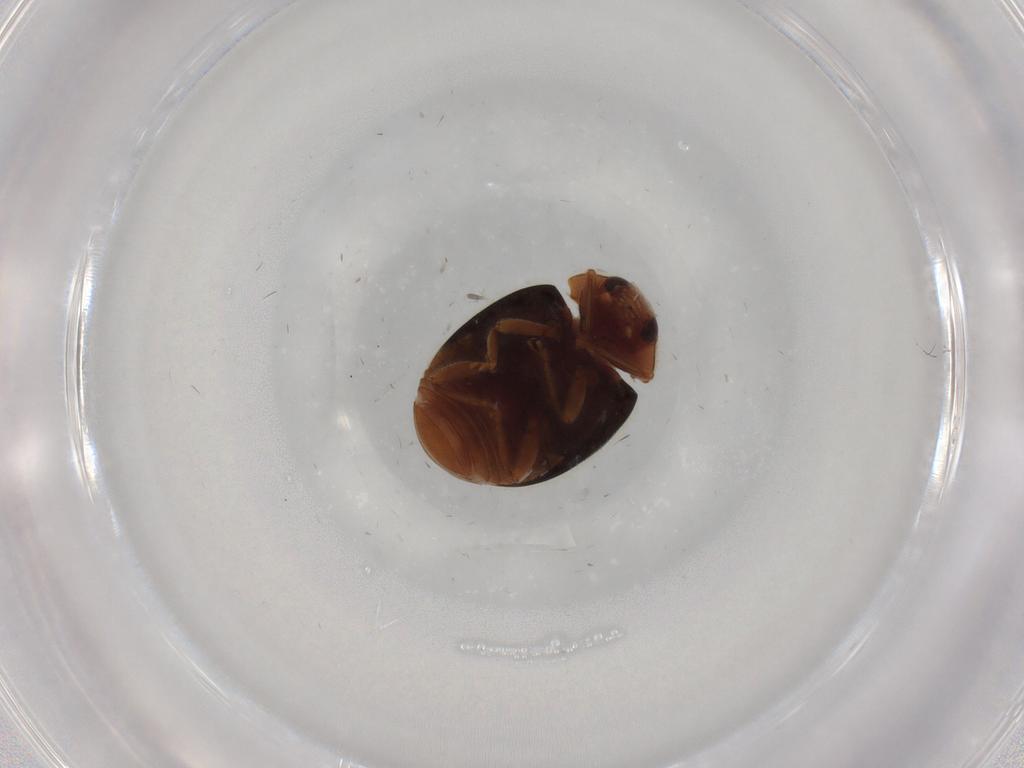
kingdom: Animalia
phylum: Arthropoda
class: Insecta
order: Coleoptera
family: Coccinellidae
